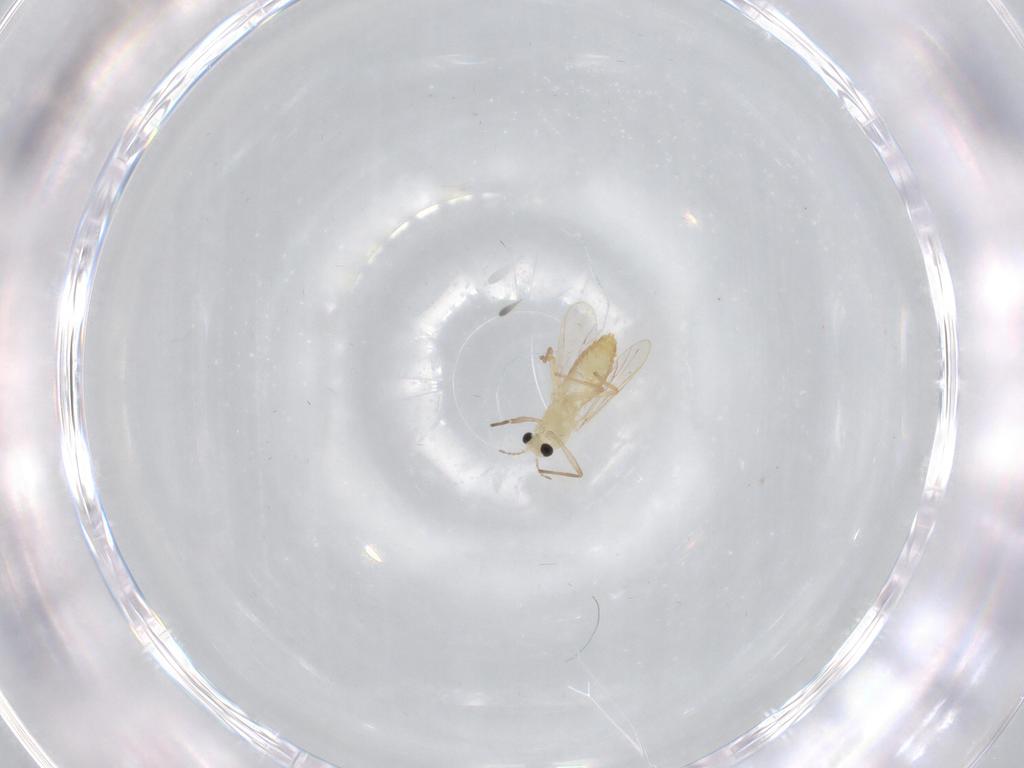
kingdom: Animalia
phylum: Arthropoda
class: Insecta
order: Diptera
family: Chironomidae
